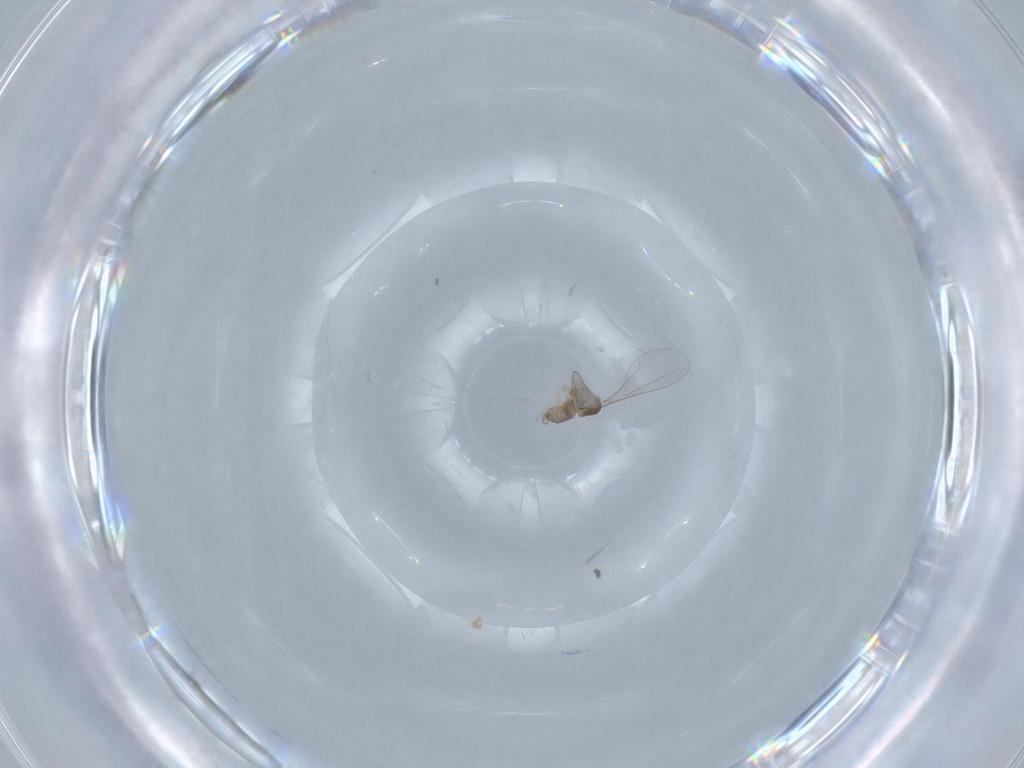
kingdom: Animalia
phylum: Arthropoda
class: Insecta
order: Diptera
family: Cecidomyiidae
